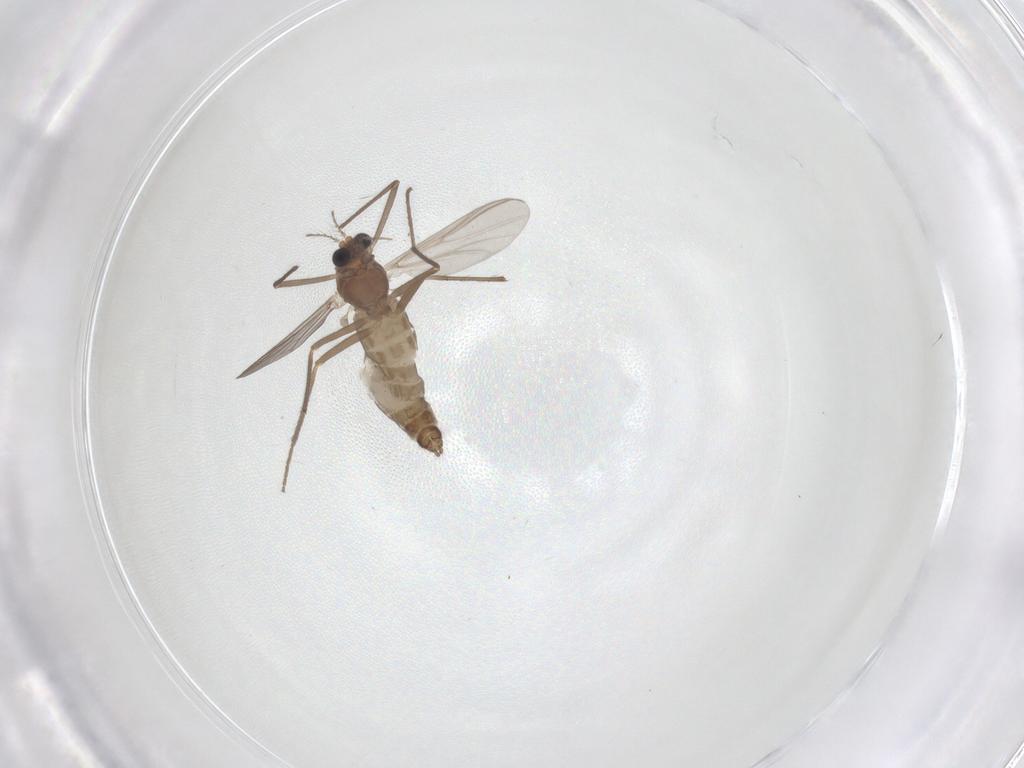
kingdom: Animalia
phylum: Arthropoda
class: Insecta
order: Diptera
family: Chironomidae
